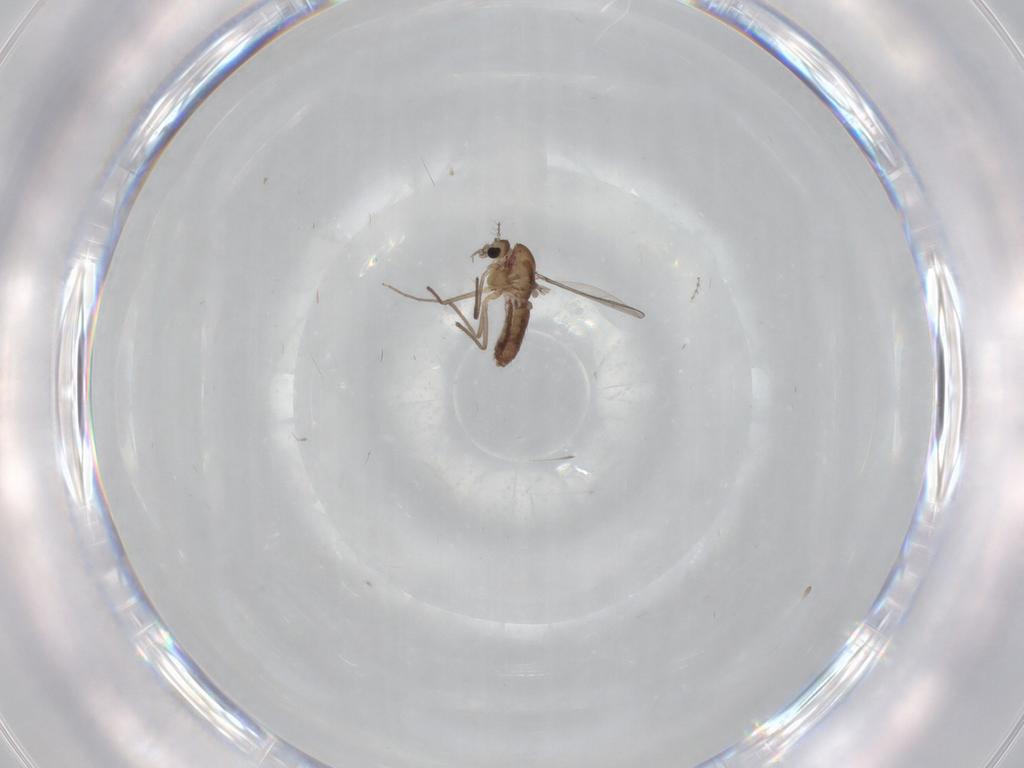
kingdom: Animalia
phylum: Arthropoda
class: Insecta
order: Diptera
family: Chironomidae
